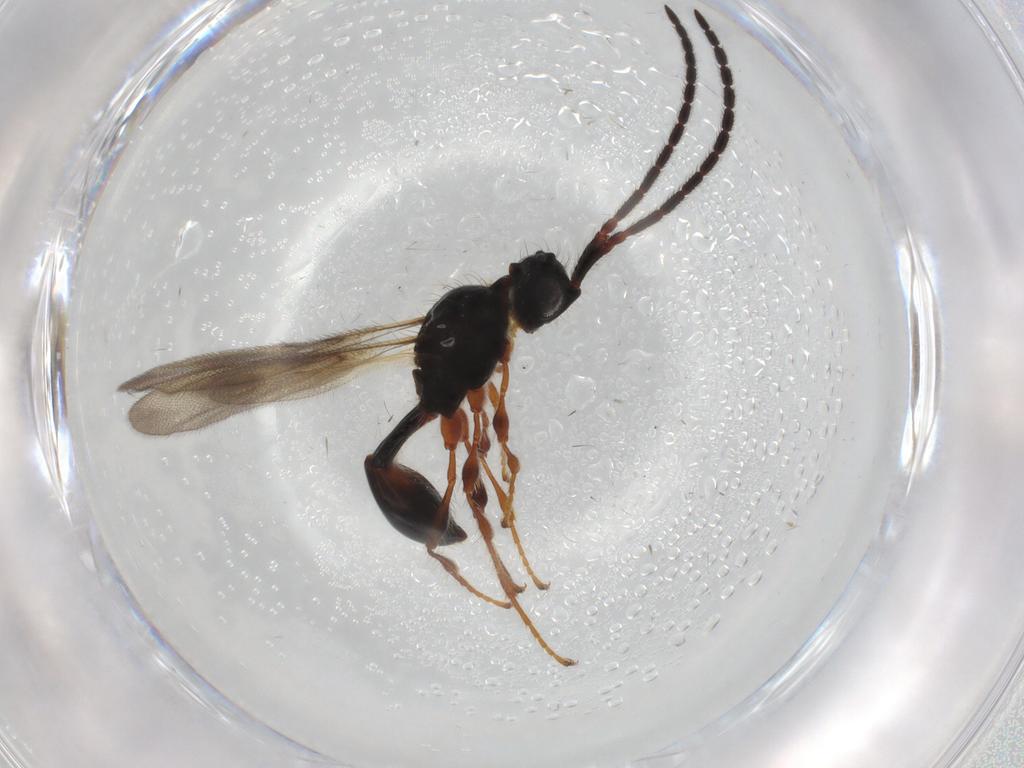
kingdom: Animalia
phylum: Arthropoda
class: Insecta
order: Hymenoptera
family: Diapriidae
